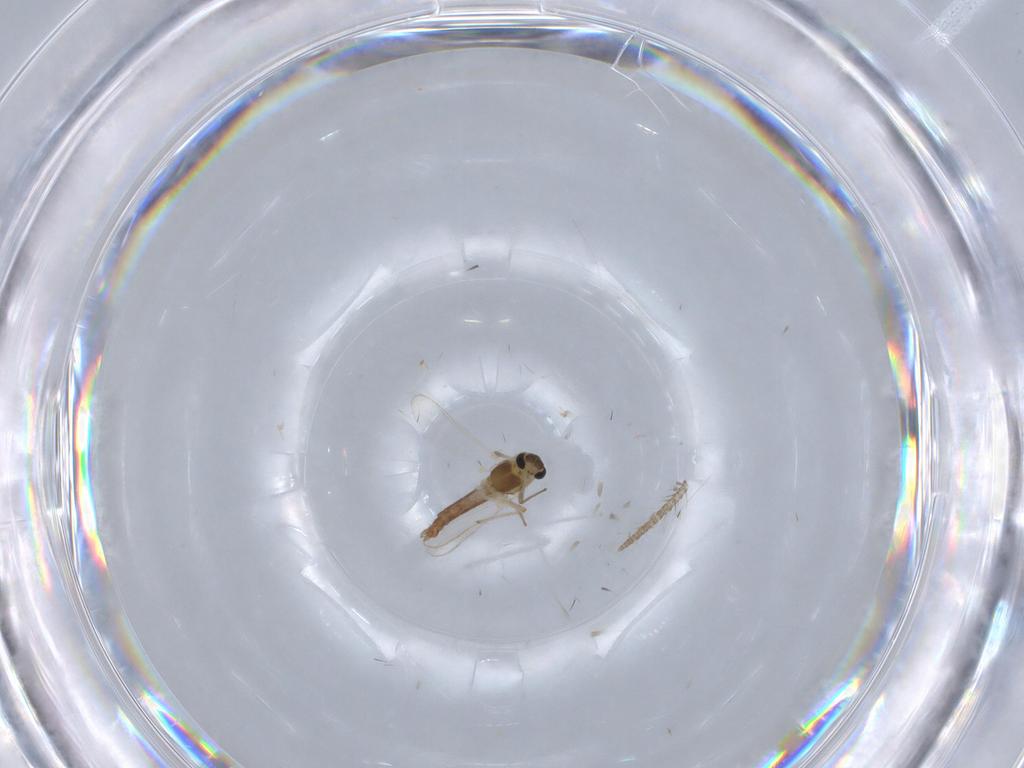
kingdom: Animalia
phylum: Arthropoda
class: Insecta
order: Diptera
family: Chironomidae
